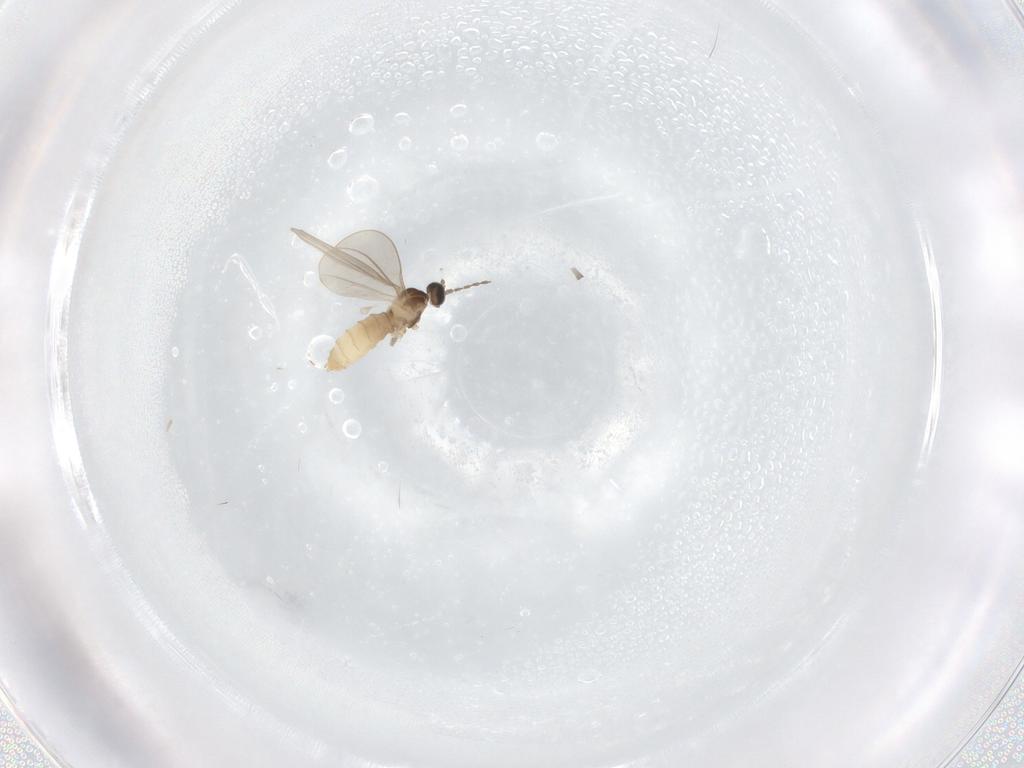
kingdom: Animalia
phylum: Arthropoda
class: Insecta
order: Diptera
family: Cecidomyiidae
